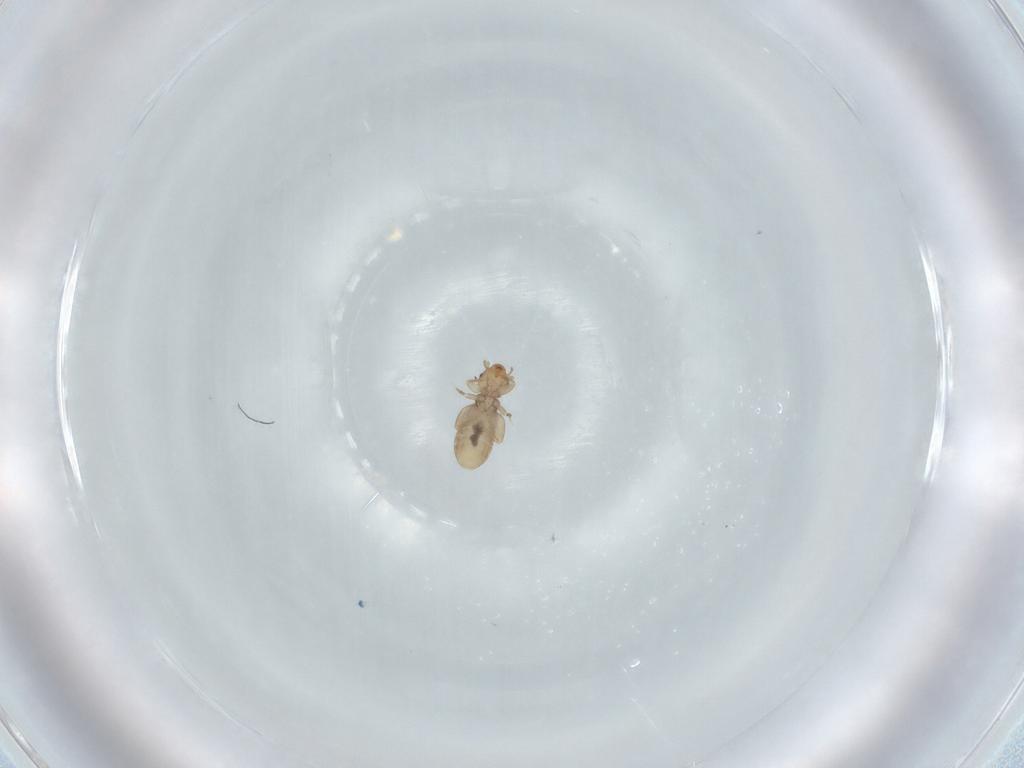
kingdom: Animalia
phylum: Arthropoda
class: Insecta
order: Psocodea
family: Liposcelididae
